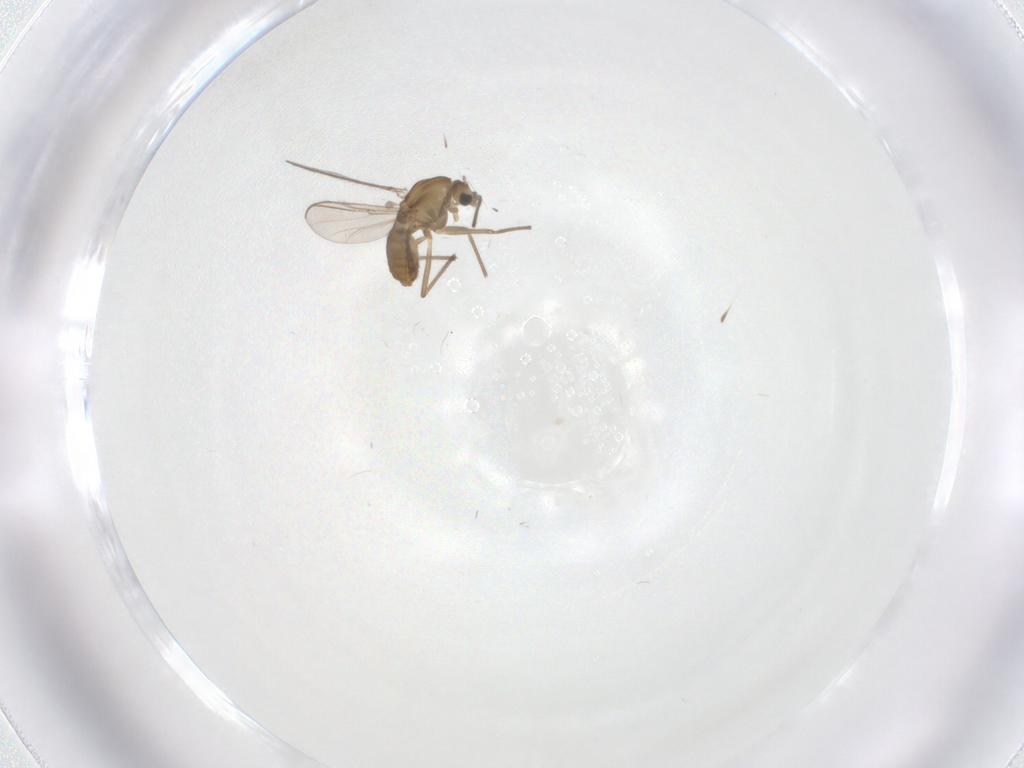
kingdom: Animalia
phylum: Arthropoda
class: Insecta
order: Diptera
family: Chironomidae
